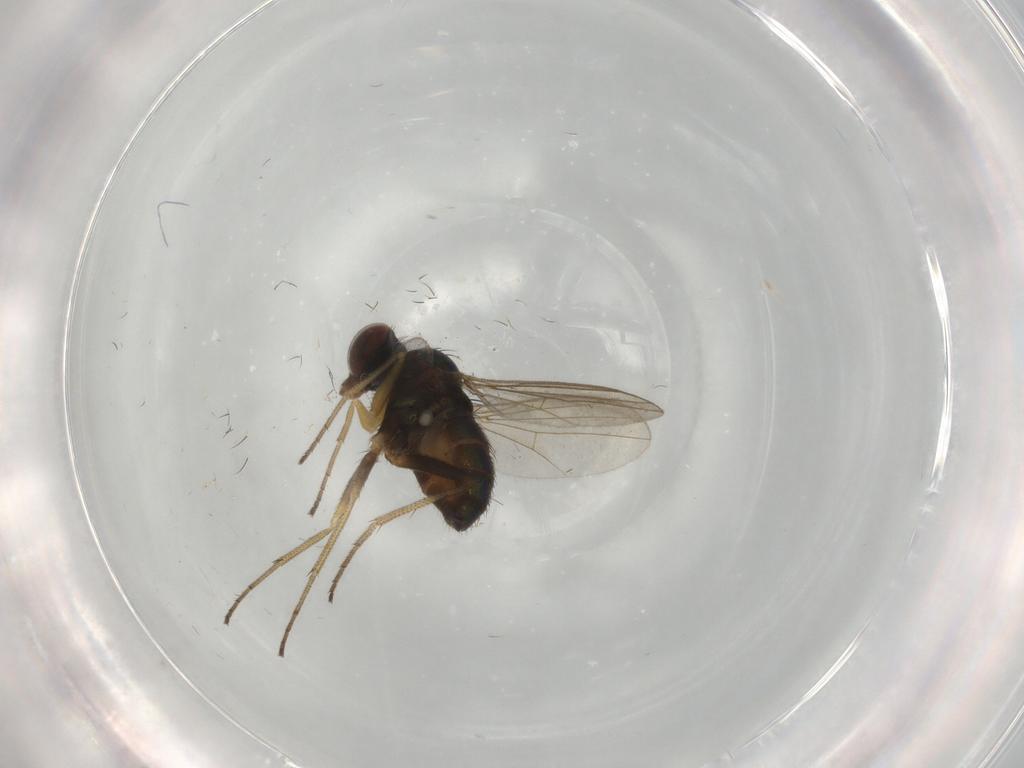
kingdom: Animalia
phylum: Arthropoda
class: Insecta
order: Diptera
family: Dolichopodidae
